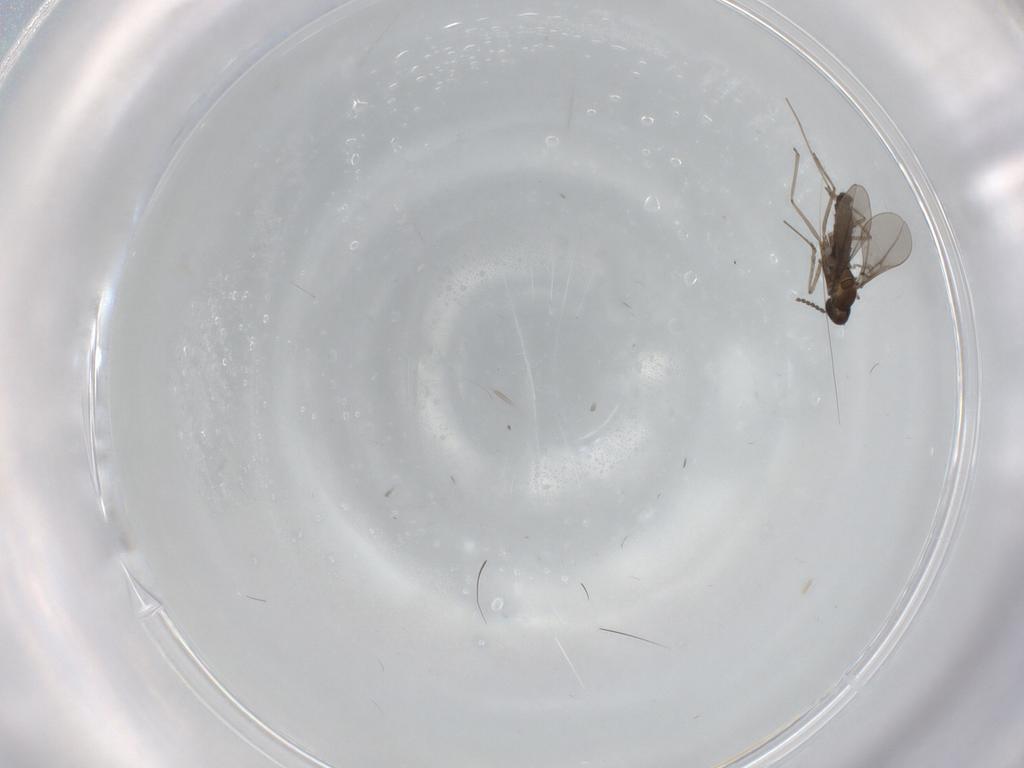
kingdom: Animalia
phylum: Arthropoda
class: Insecta
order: Diptera
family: Cecidomyiidae
